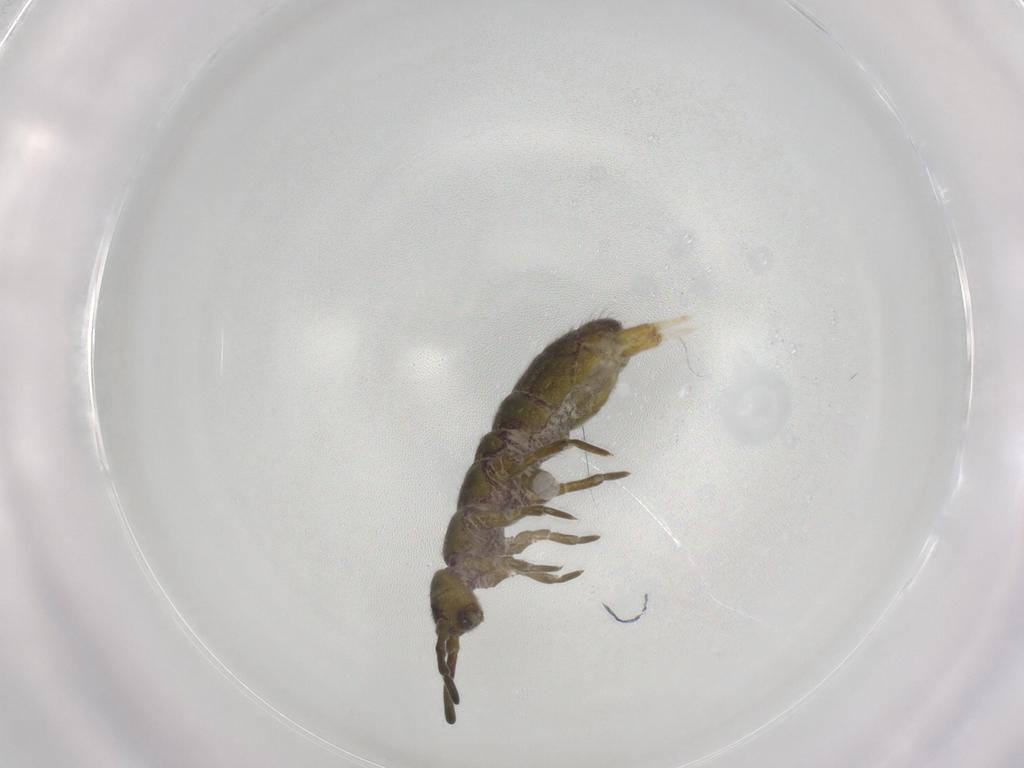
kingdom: Animalia
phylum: Arthropoda
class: Collembola
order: Entomobryomorpha
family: Isotomidae
